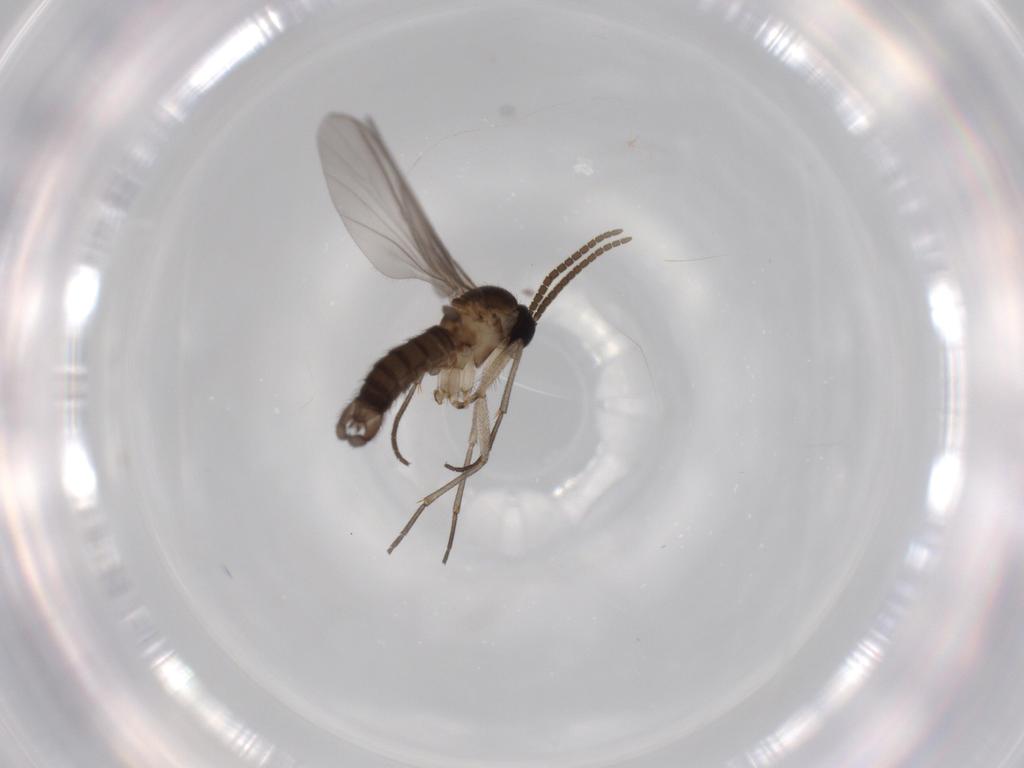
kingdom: Animalia
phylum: Arthropoda
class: Insecta
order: Diptera
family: Sciaridae
